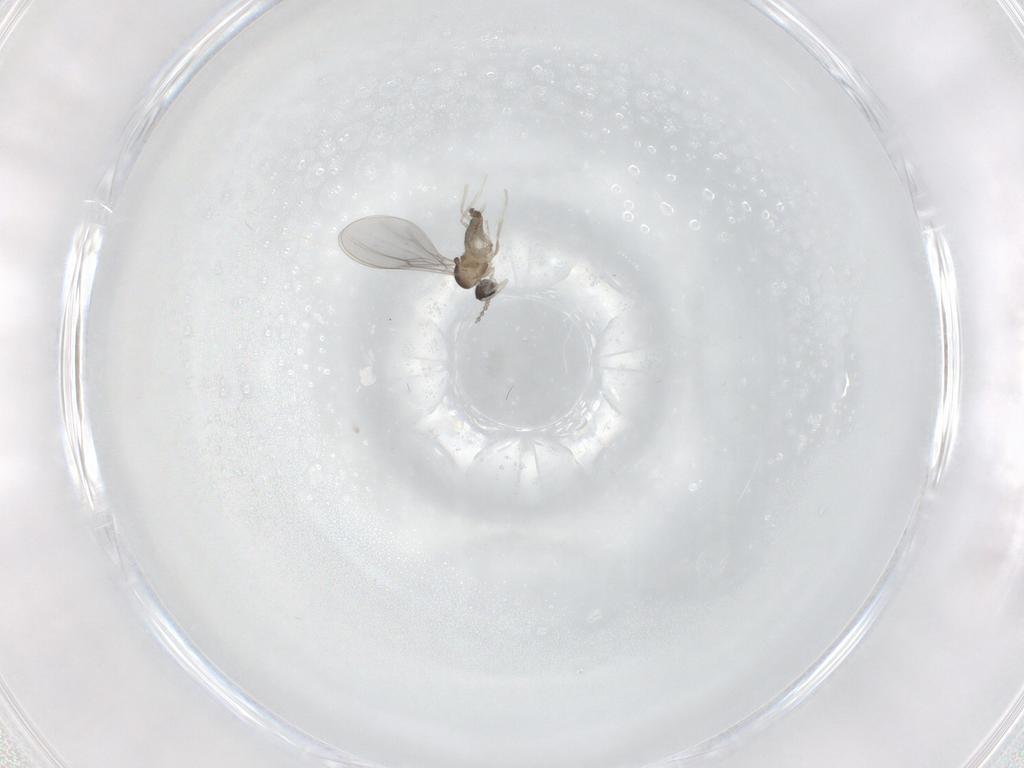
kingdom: Animalia
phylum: Arthropoda
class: Insecta
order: Diptera
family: Cecidomyiidae
